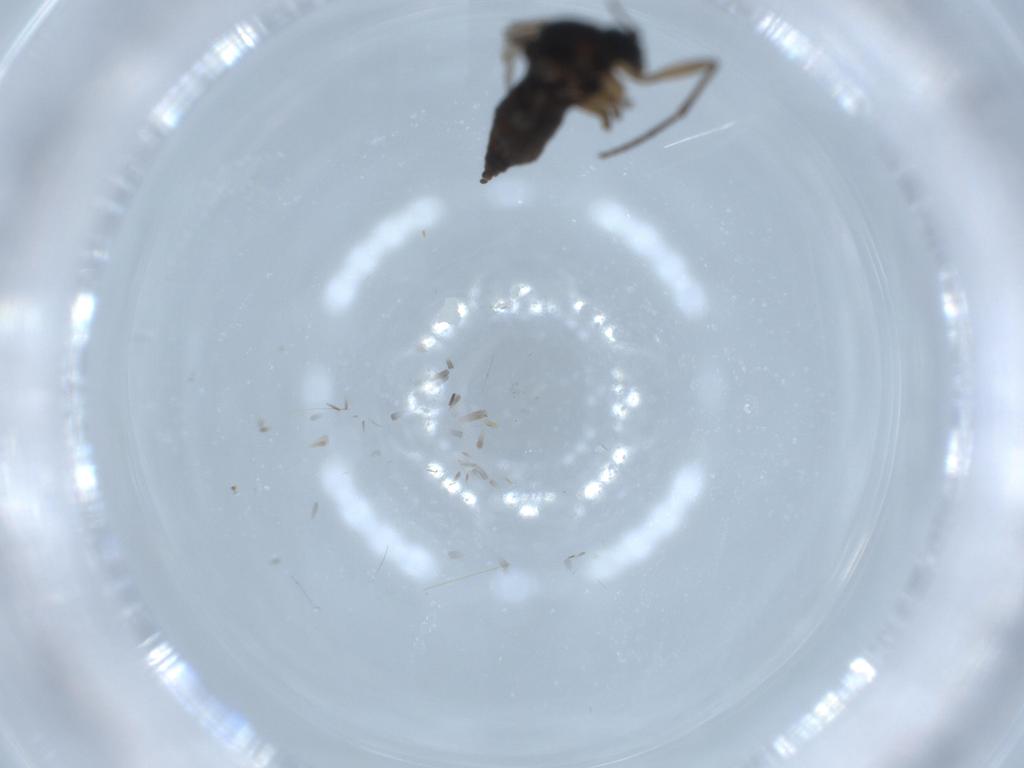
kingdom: Animalia
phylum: Arthropoda
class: Insecta
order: Diptera
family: Sciaridae
